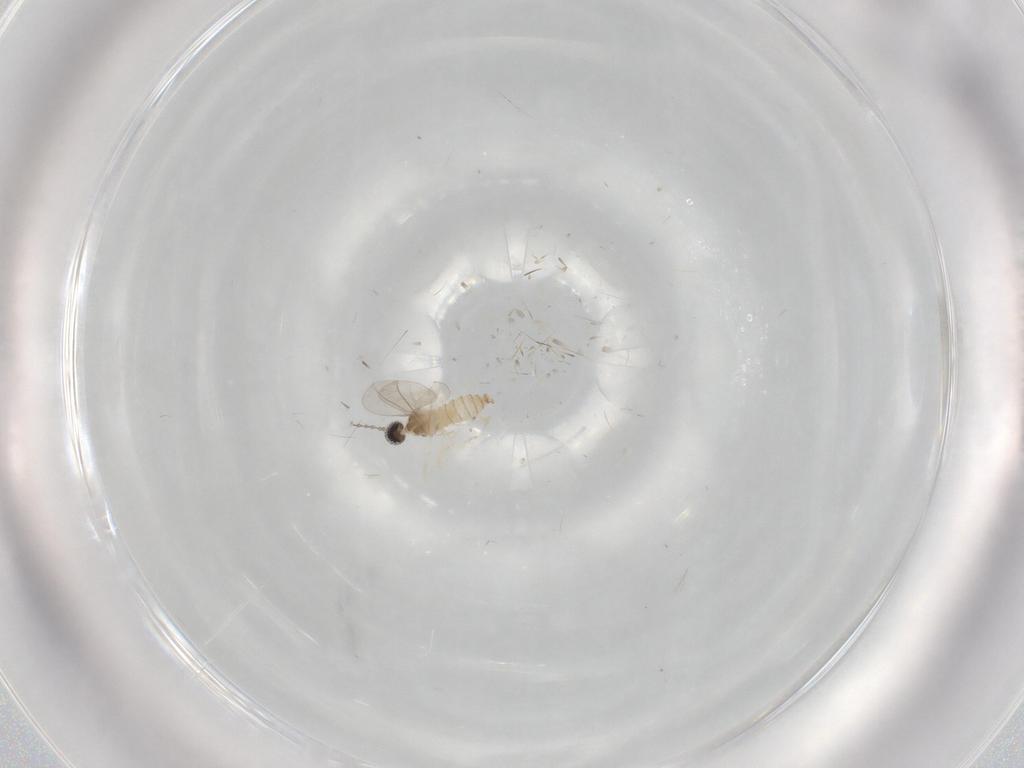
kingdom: Animalia
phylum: Arthropoda
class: Insecta
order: Diptera
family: Cecidomyiidae
